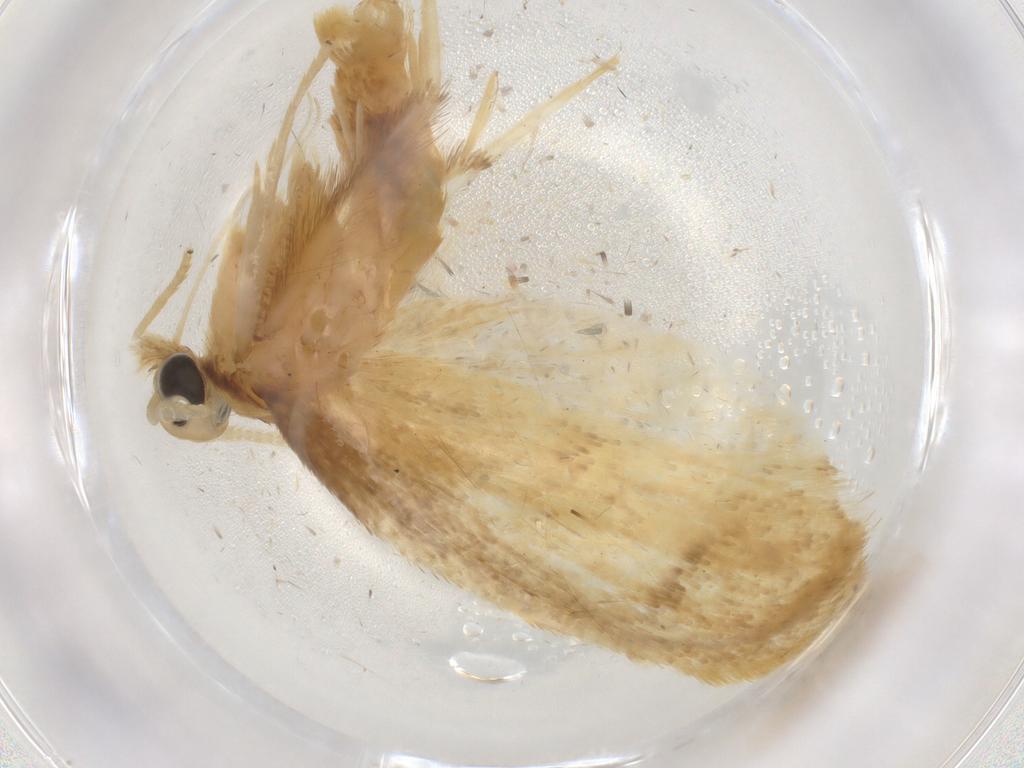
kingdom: Animalia
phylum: Arthropoda
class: Insecta
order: Lepidoptera
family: Lecithoceridae
